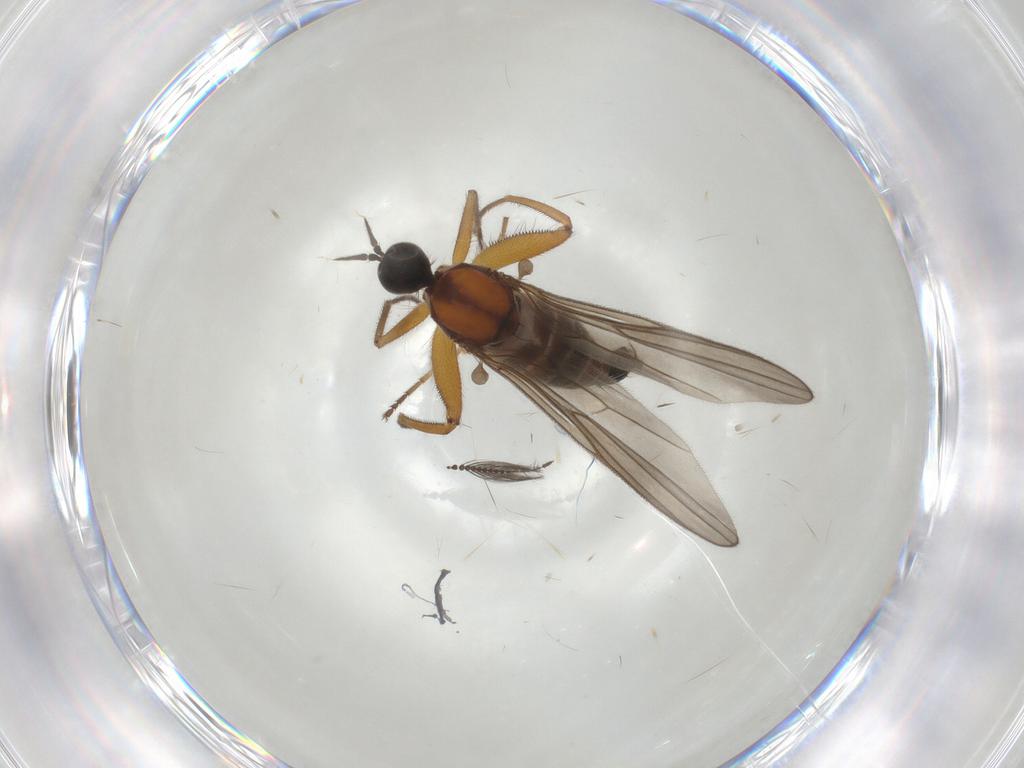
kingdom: Animalia
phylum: Arthropoda
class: Insecta
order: Diptera
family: Hybotidae
